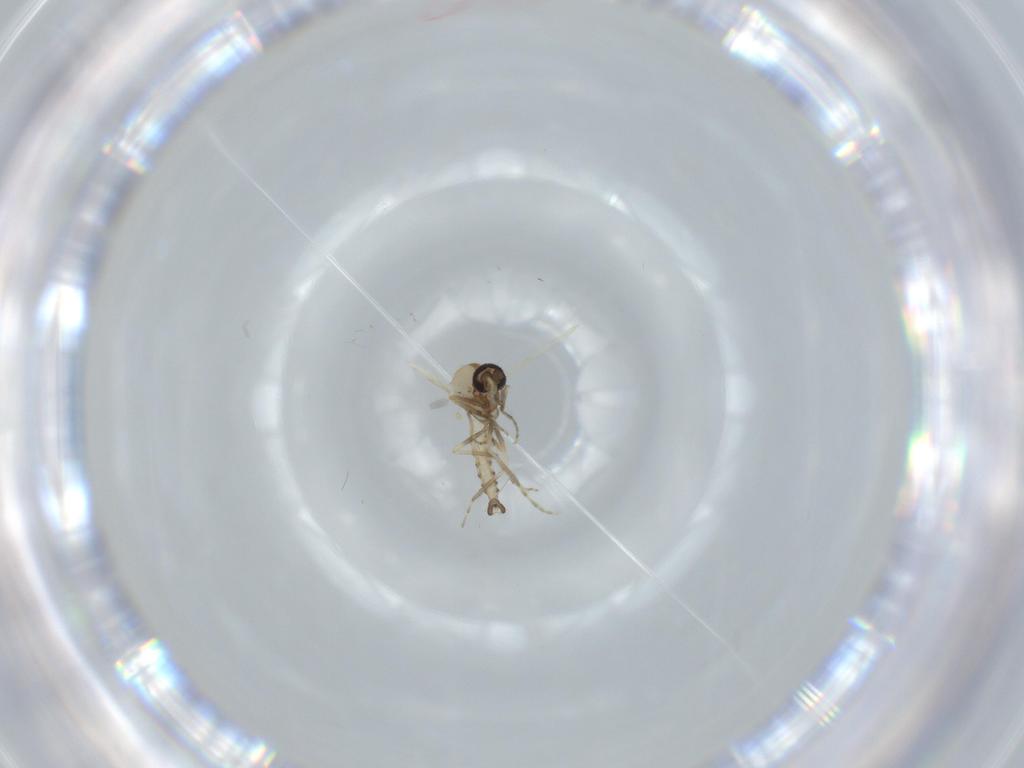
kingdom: Animalia
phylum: Arthropoda
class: Insecta
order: Diptera
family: Ceratopogonidae
